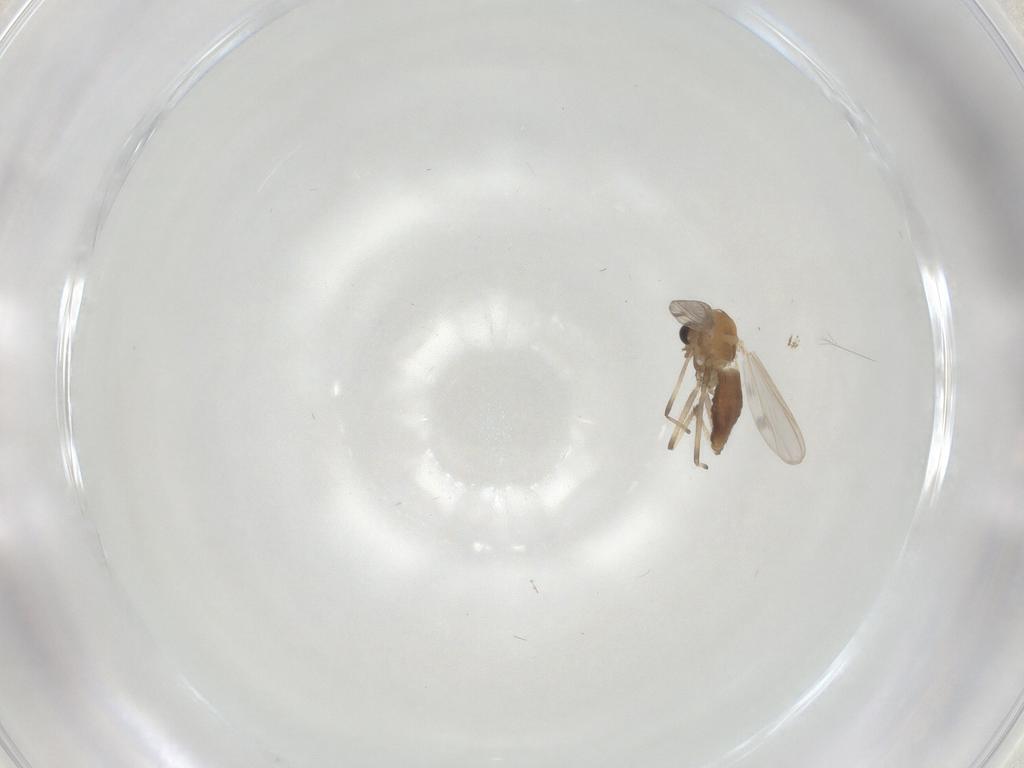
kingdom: Animalia
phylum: Arthropoda
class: Insecta
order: Diptera
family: Chironomidae
